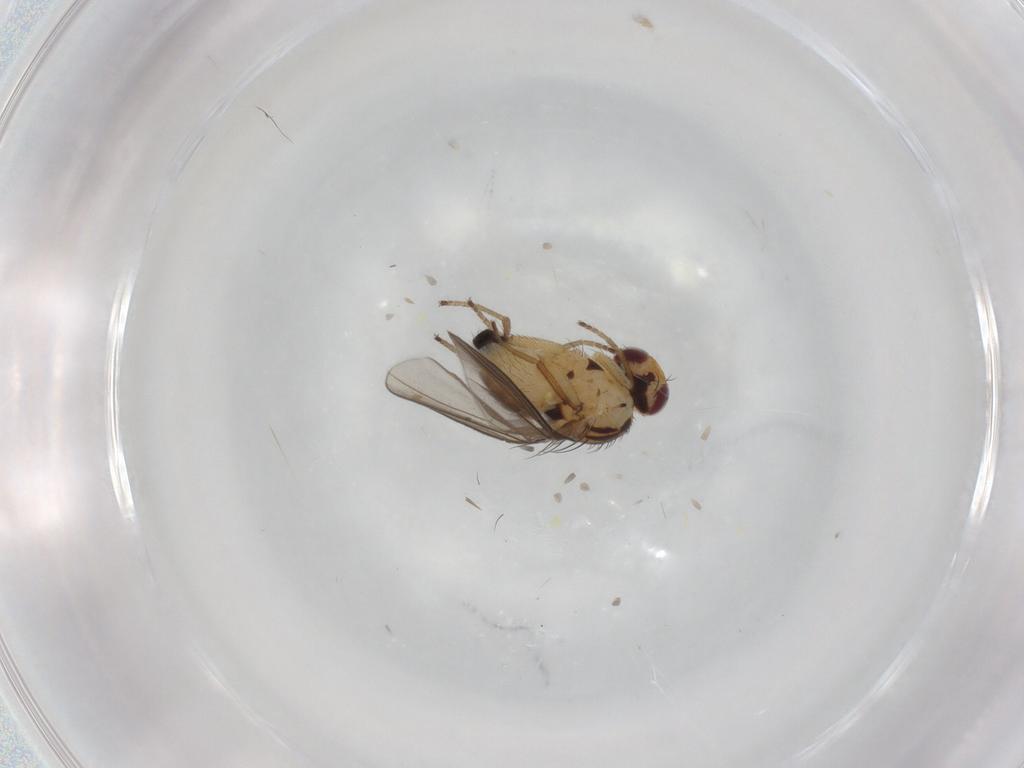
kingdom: Animalia
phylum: Arthropoda
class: Insecta
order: Diptera
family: Agromyzidae
